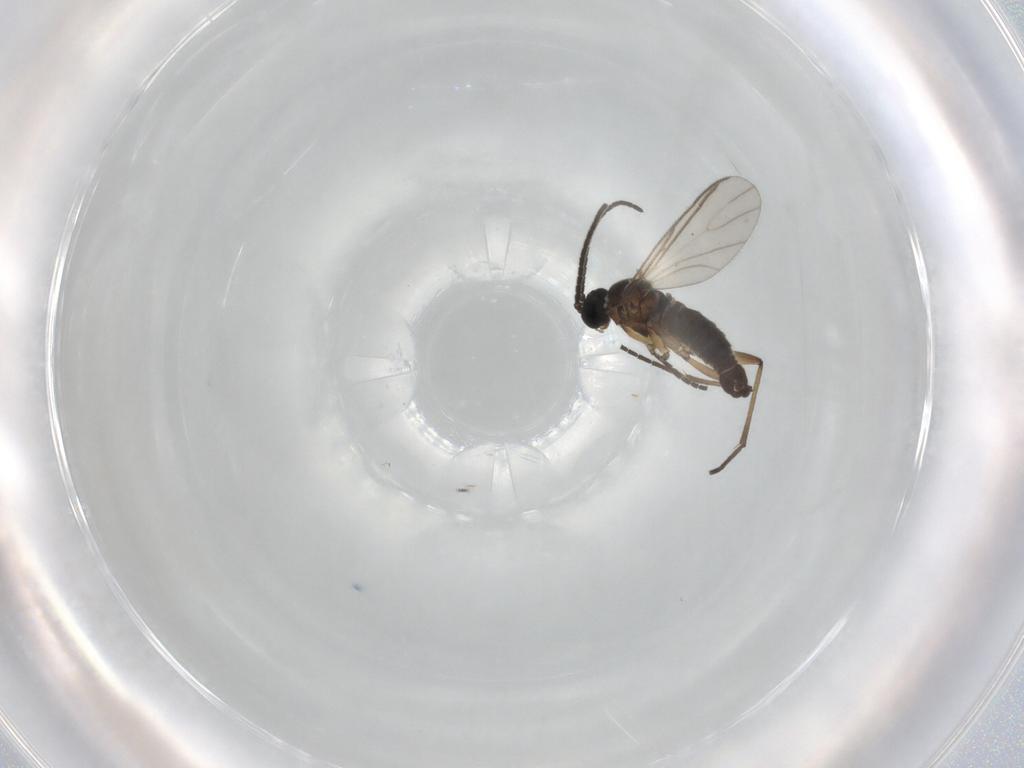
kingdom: Animalia
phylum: Arthropoda
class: Insecta
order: Diptera
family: Sciaridae
